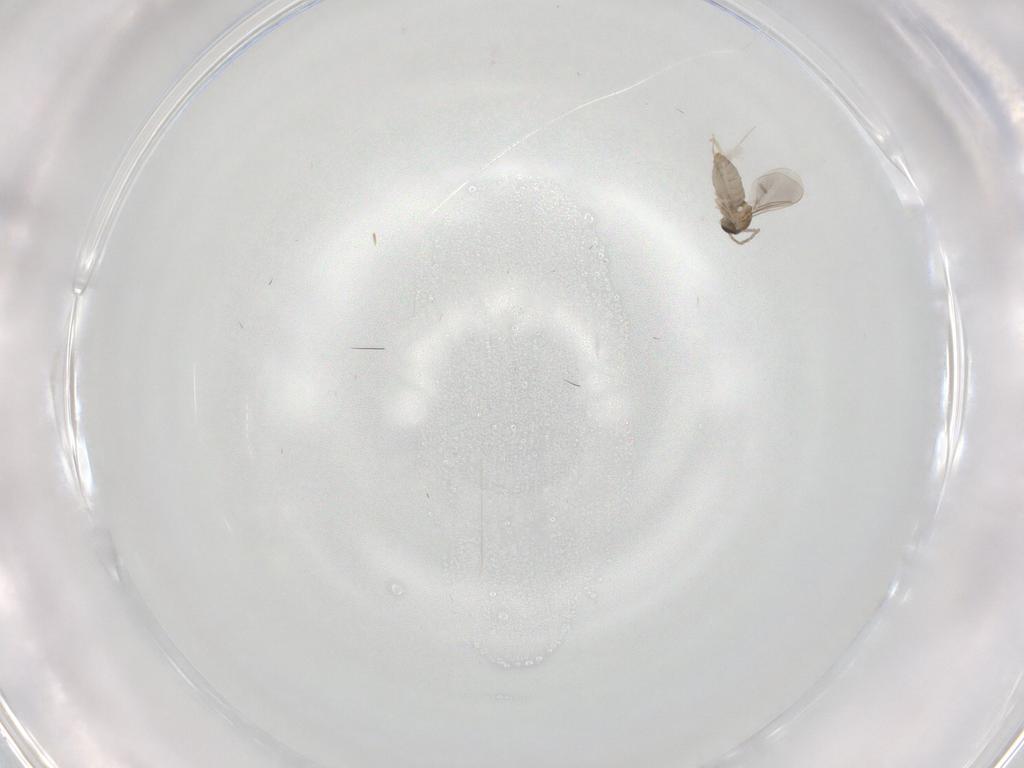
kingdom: Animalia
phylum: Arthropoda
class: Insecta
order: Diptera
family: Cecidomyiidae
